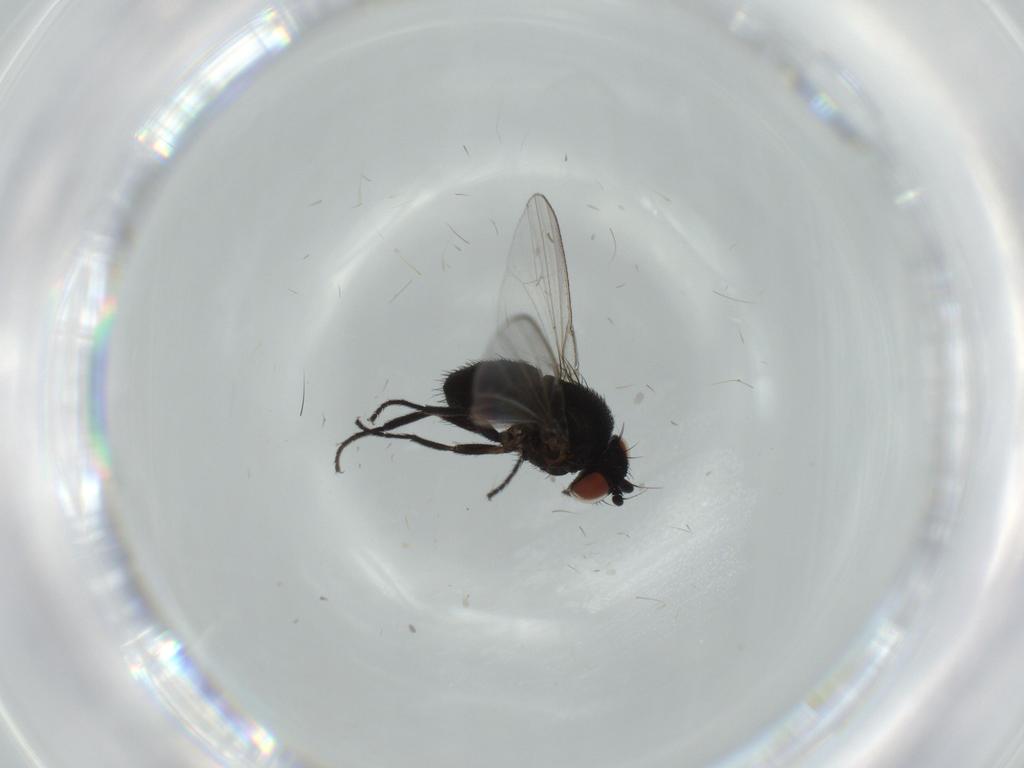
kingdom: Animalia
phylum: Arthropoda
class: Insecta
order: Diptera
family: Milichiidae
